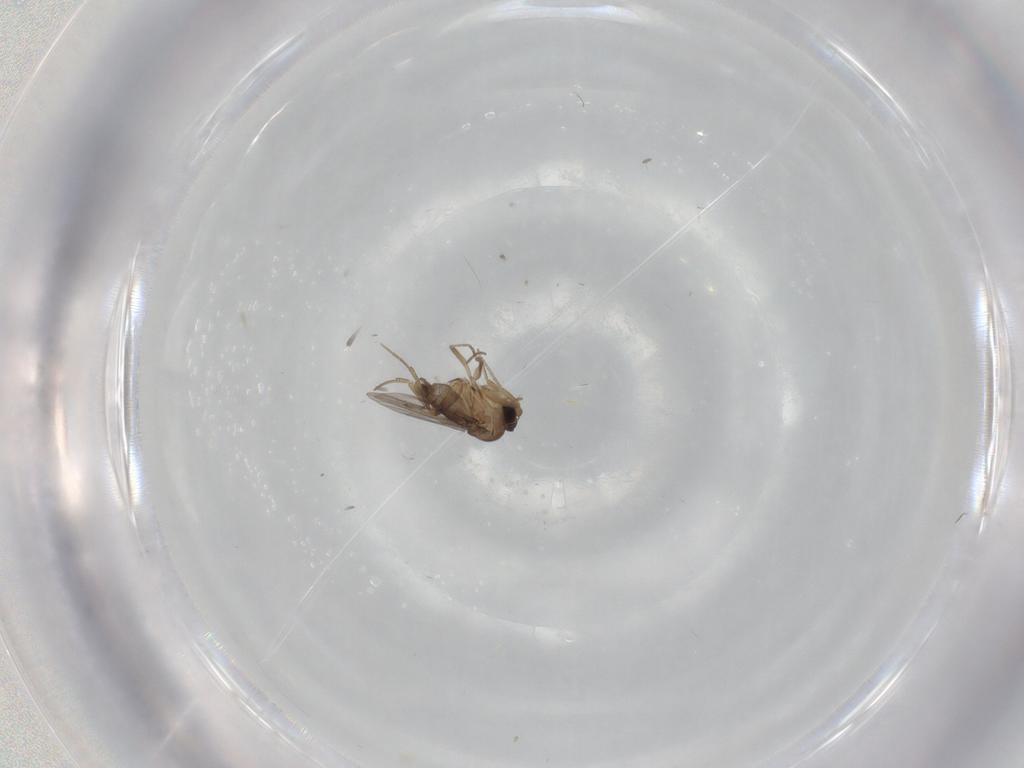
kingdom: Animalia
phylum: Arthropoda
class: Insecta
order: Diptera
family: Phoridae
